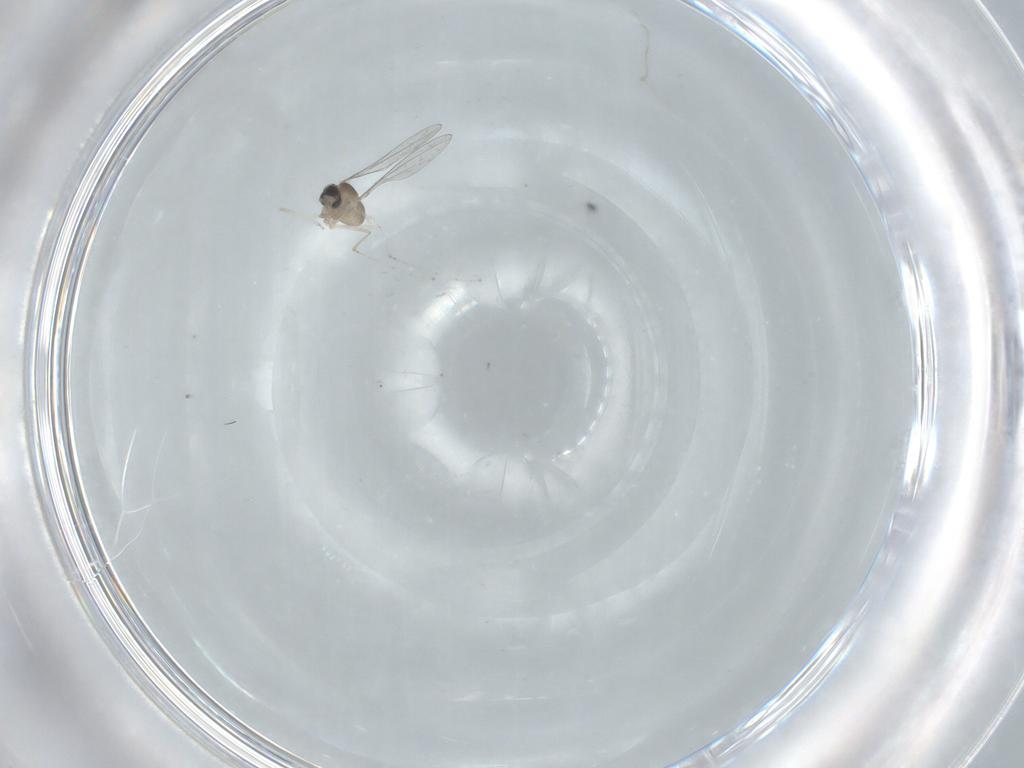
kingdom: Animalia
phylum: Arthropoda
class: Insecta
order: Diptera
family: Cecidomyiidae
